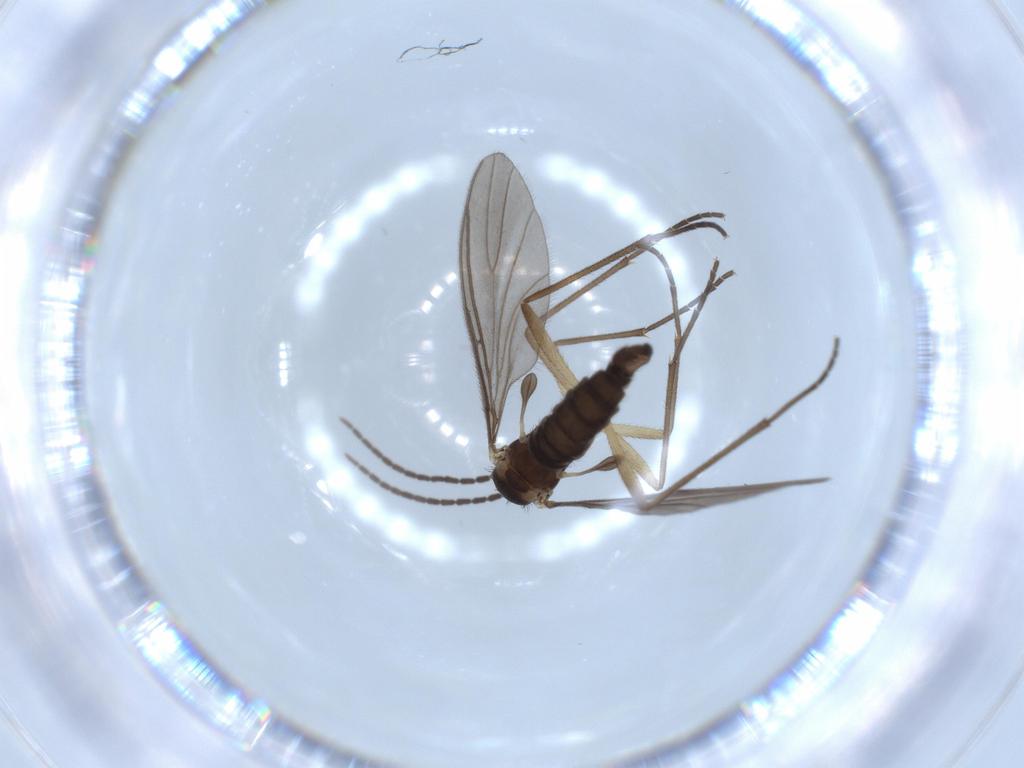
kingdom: Animalia
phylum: Arthropoda
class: Insecta
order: Diptera
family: Sciaridae
